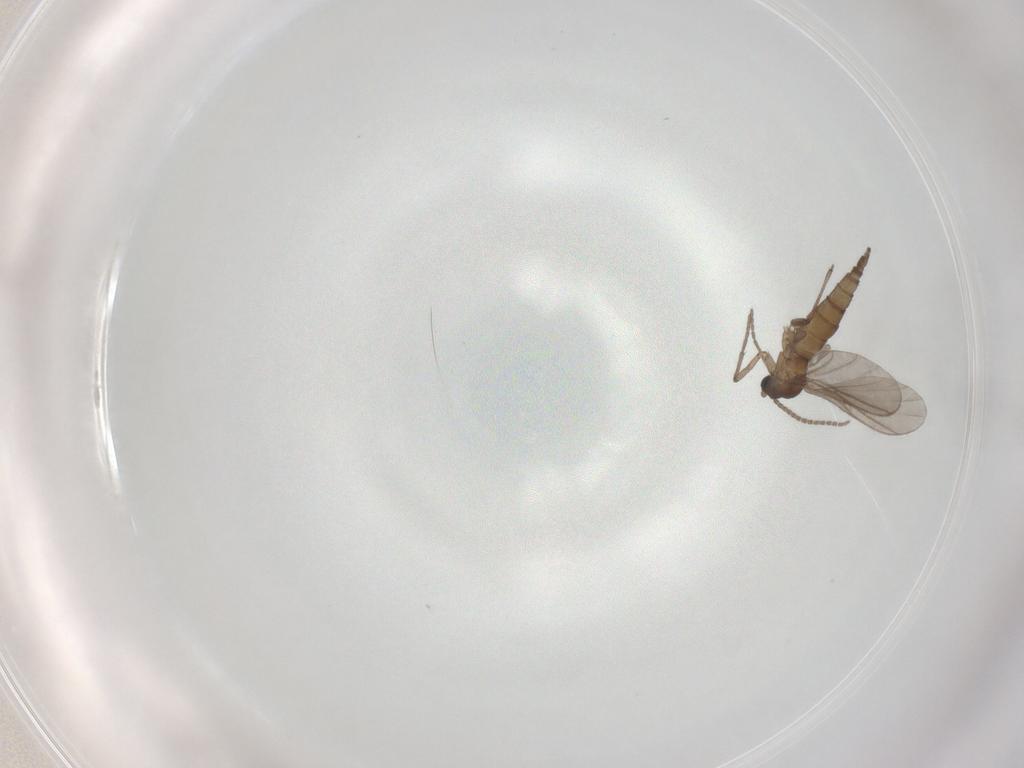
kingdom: Animalia
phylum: Arthropoda
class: Insecta
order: Diptera
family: Sciaridae
